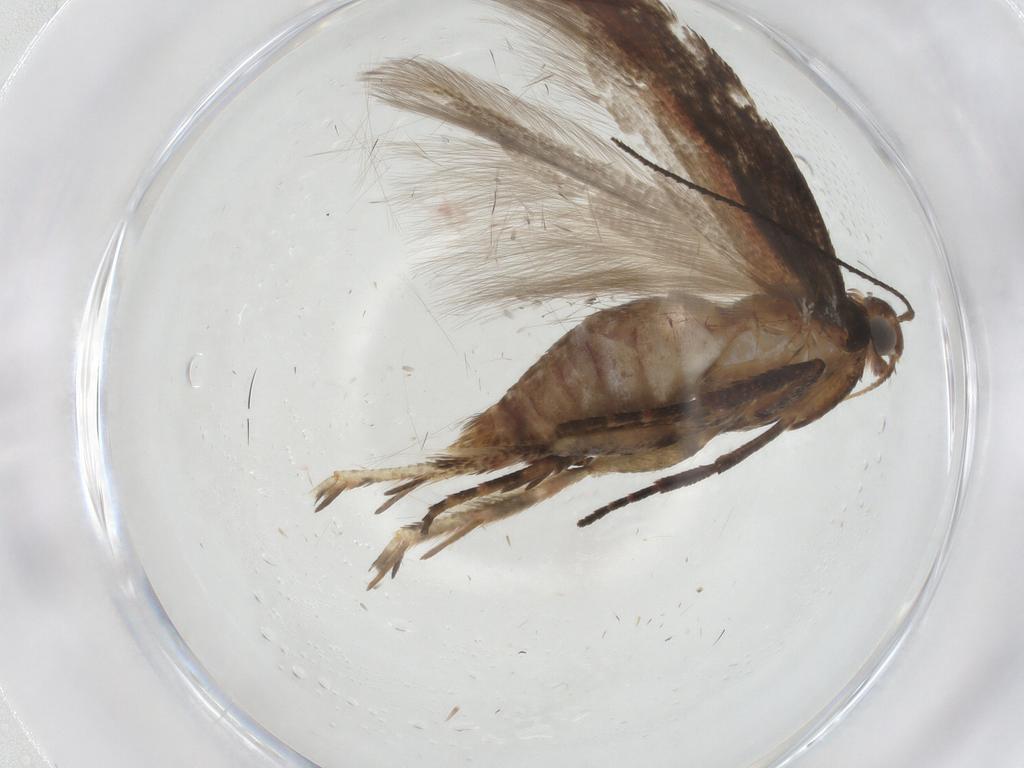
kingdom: Animalia
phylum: Arthropoda
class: Insecta
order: Lepidoptera
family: Gelechiidae
